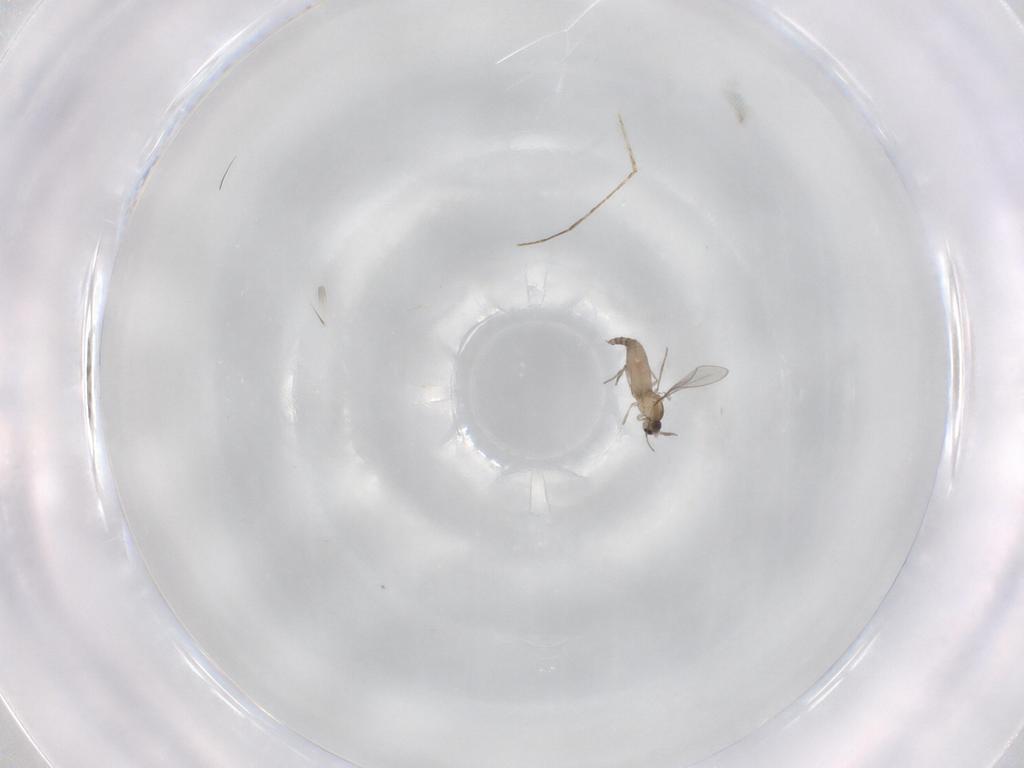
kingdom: Animalia
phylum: Arthropoda
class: Insecta
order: Diptera
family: Cecidomyiidae
